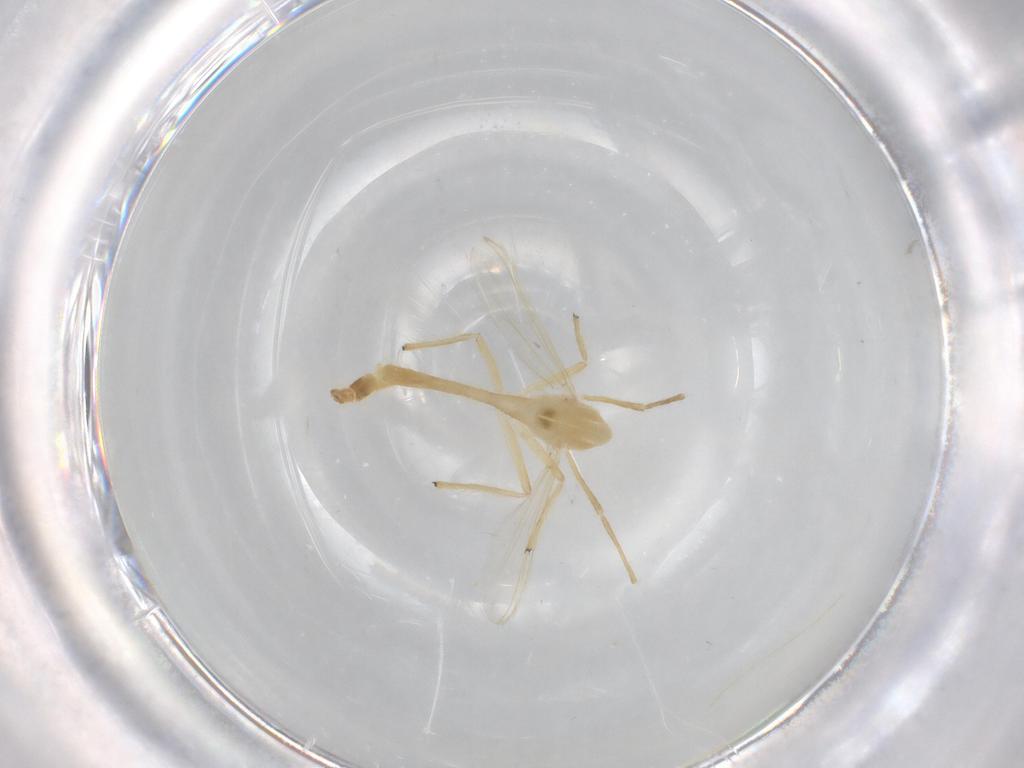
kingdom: Animalia
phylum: Arthropoda
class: Insecta
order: Diptera
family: Chironomidae
